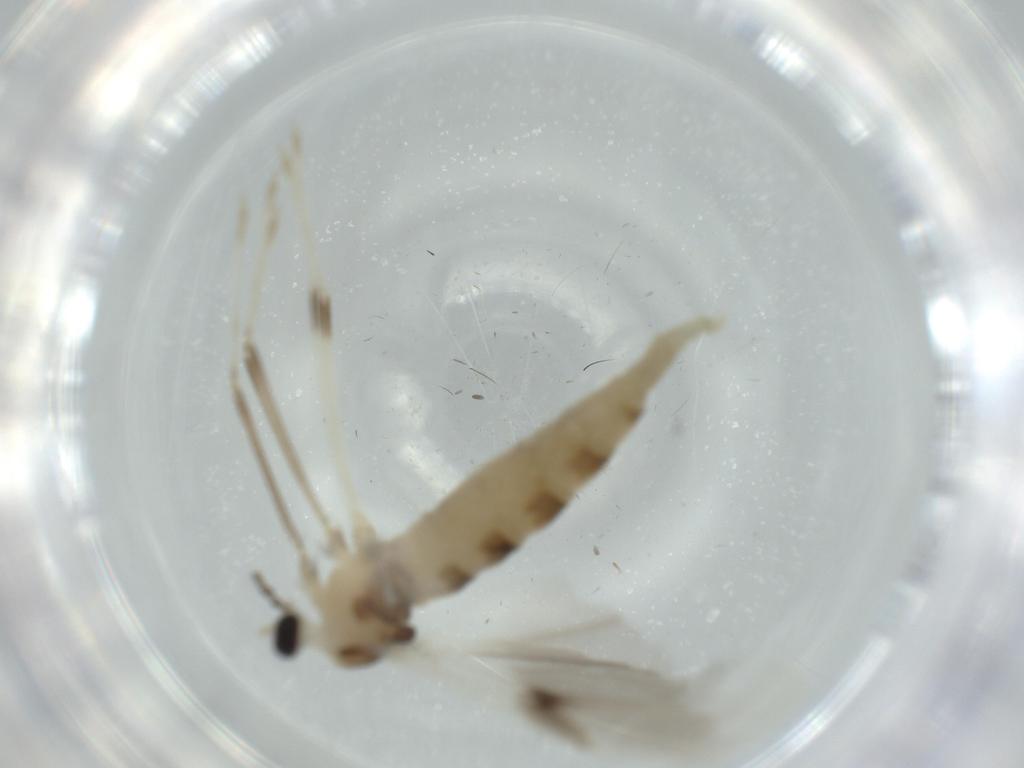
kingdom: Animalia
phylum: Arthropoda
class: Insecta
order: Diptera
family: Cecidomyiidae
